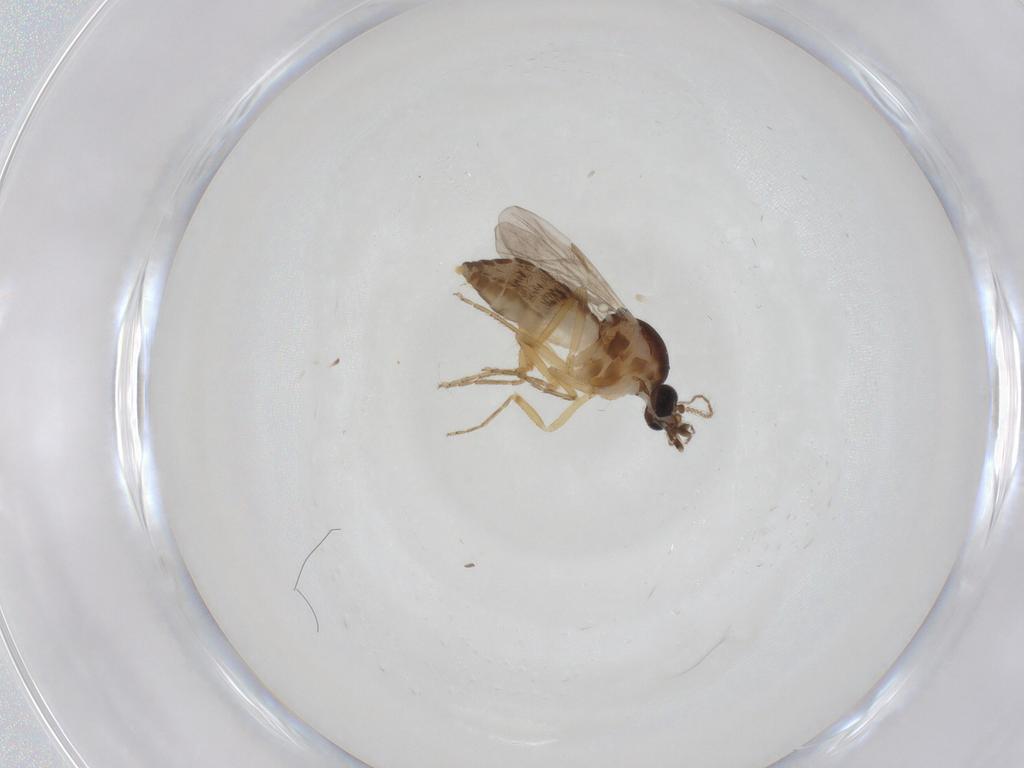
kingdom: Animalia
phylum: Arthropoda
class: Insecta
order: Diptera
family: Ceratopogonidae
